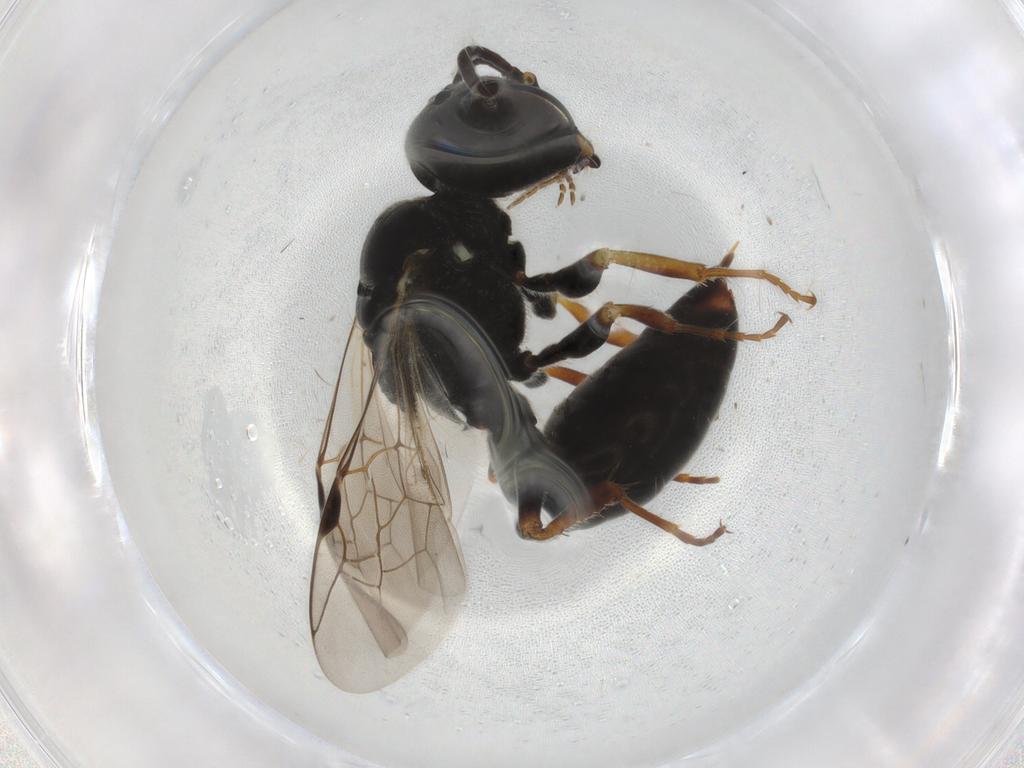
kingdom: Animalia
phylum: Arthropoda
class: Insecta
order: Hymenoptera
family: Crabronidae
